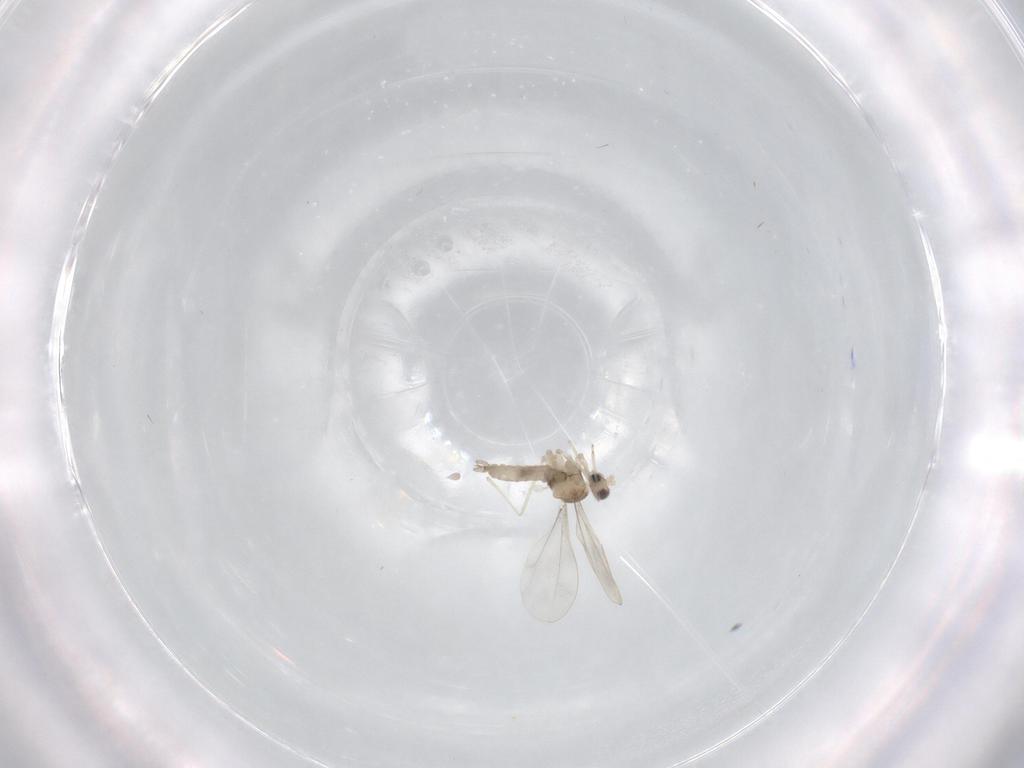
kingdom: Animalia
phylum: Arthropoda
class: Insecta
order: Diptera
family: Cecidomyiidae
